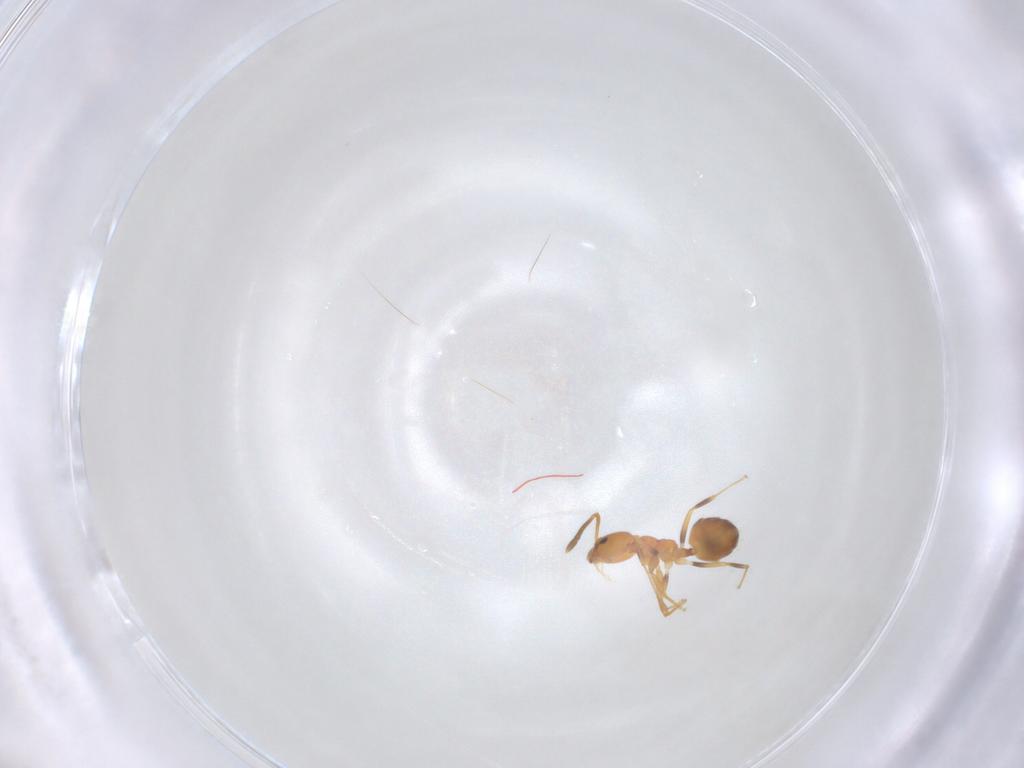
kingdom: Animalia
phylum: Arthropoda
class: Insecta
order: Hymenoptera
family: Formicidae
